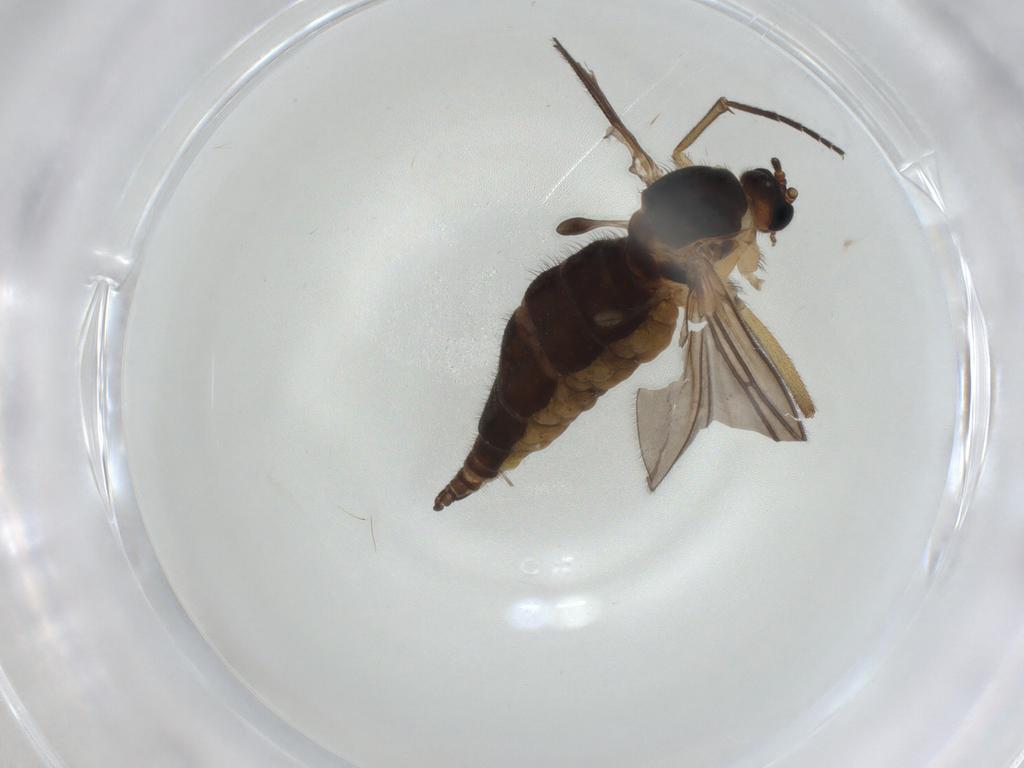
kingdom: Animalia
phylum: Arthropoda
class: Insecta
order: Diptera
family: Sciaridae
